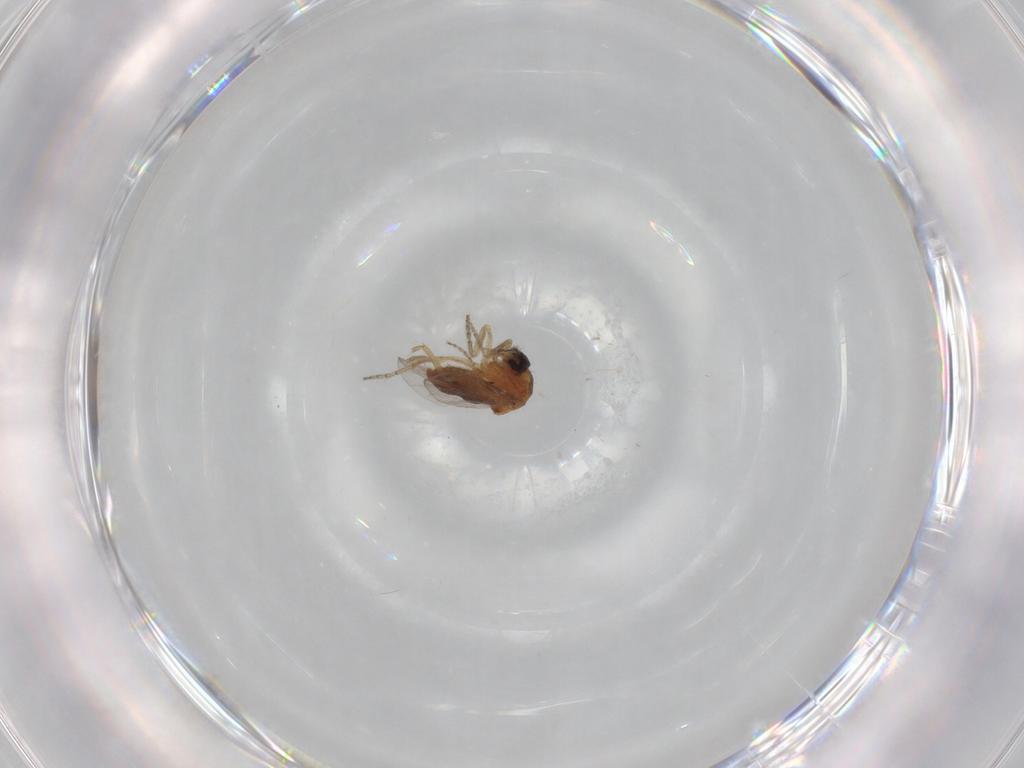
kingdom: Animalia
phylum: Arthropoda
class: Insecta
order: Diptera
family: Ceratopogonidae
